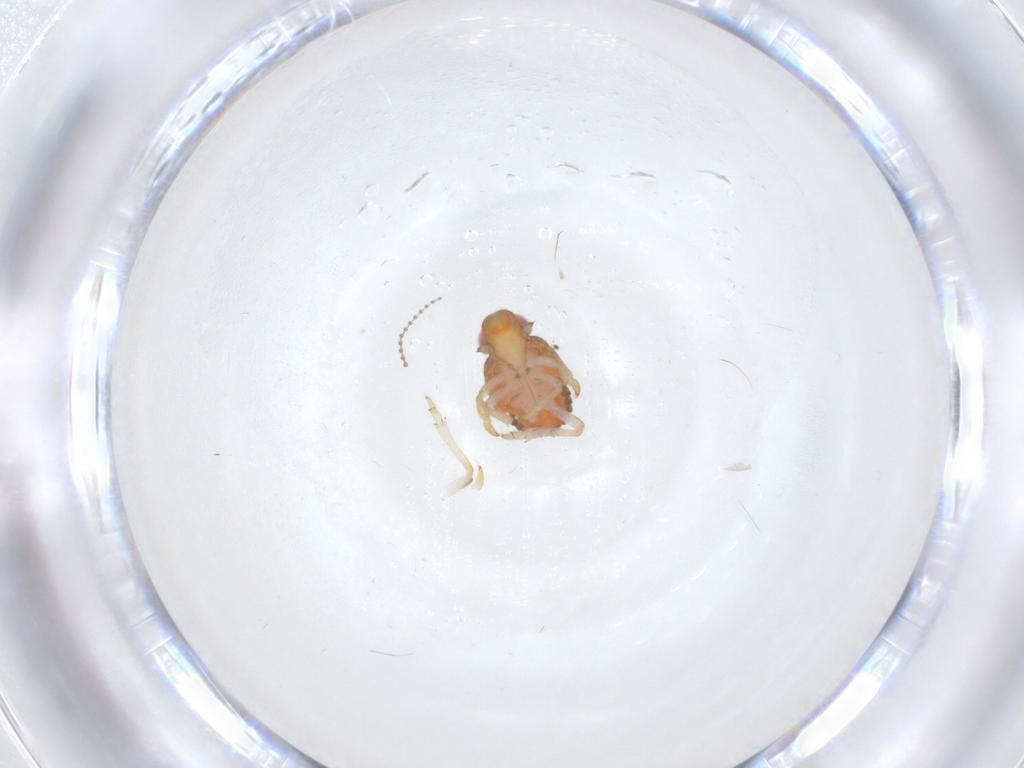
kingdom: Animalia
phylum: Arthropoda
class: Insecta
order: Hemiptera
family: Issidae
